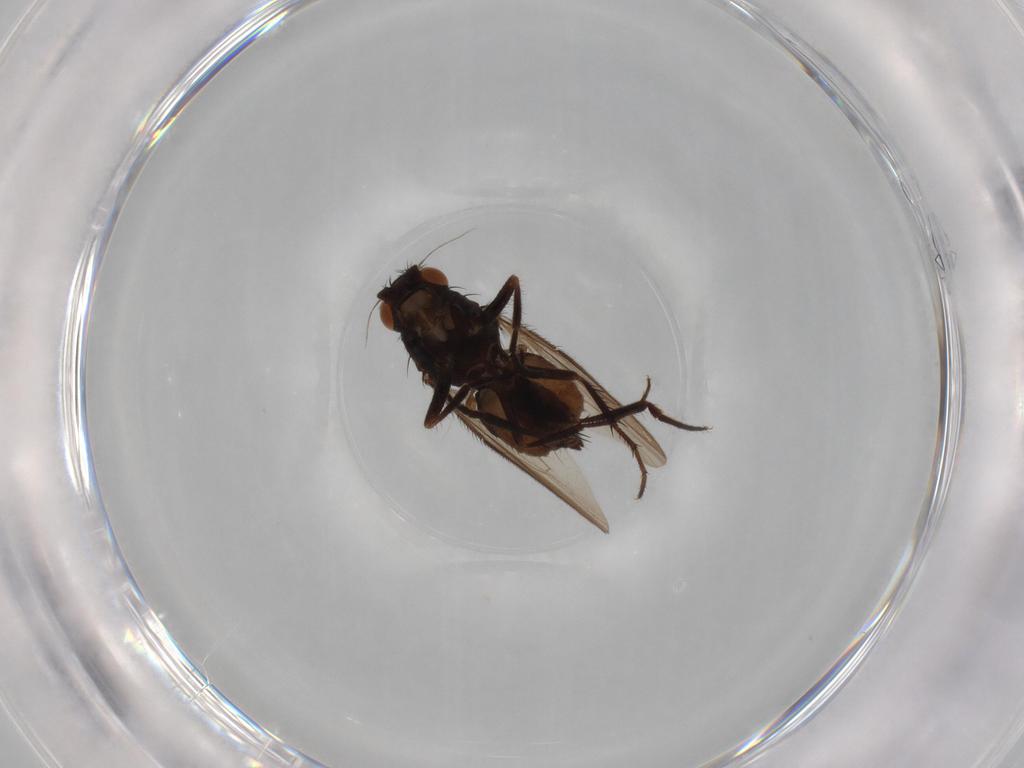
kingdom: Animalia
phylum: Arthropoda
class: Insecta
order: Diptera
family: Sphaeroceridae
